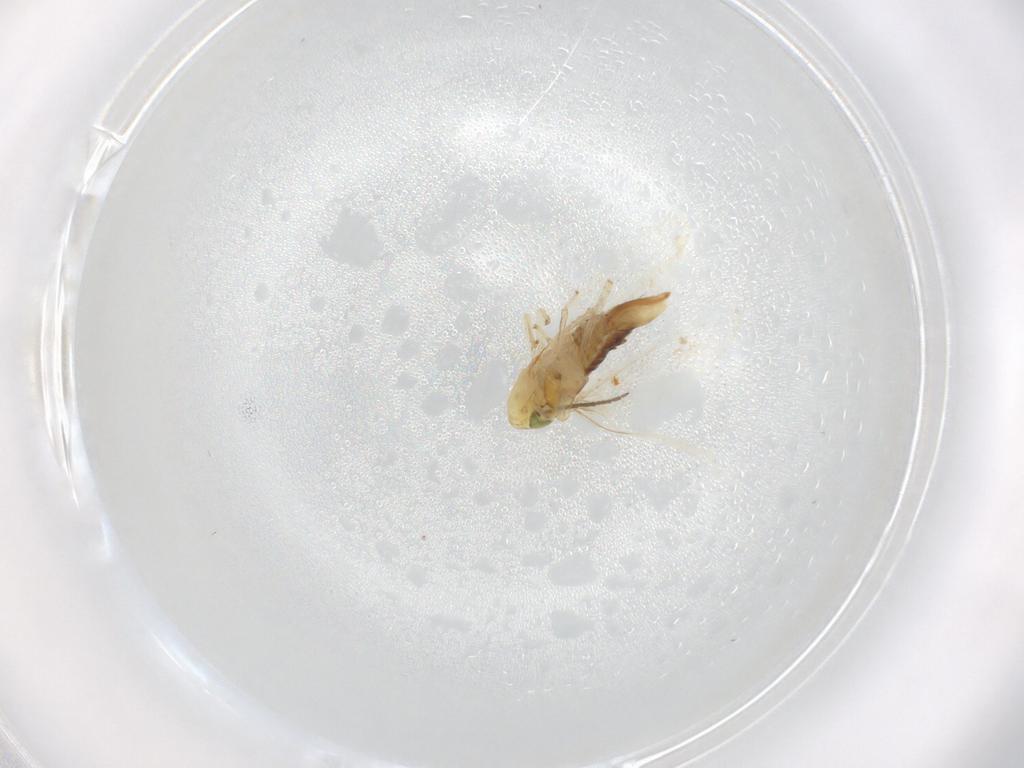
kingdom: Animalia
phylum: Arthropoda
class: Insecta
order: Hemiptera
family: Cicadellidae
